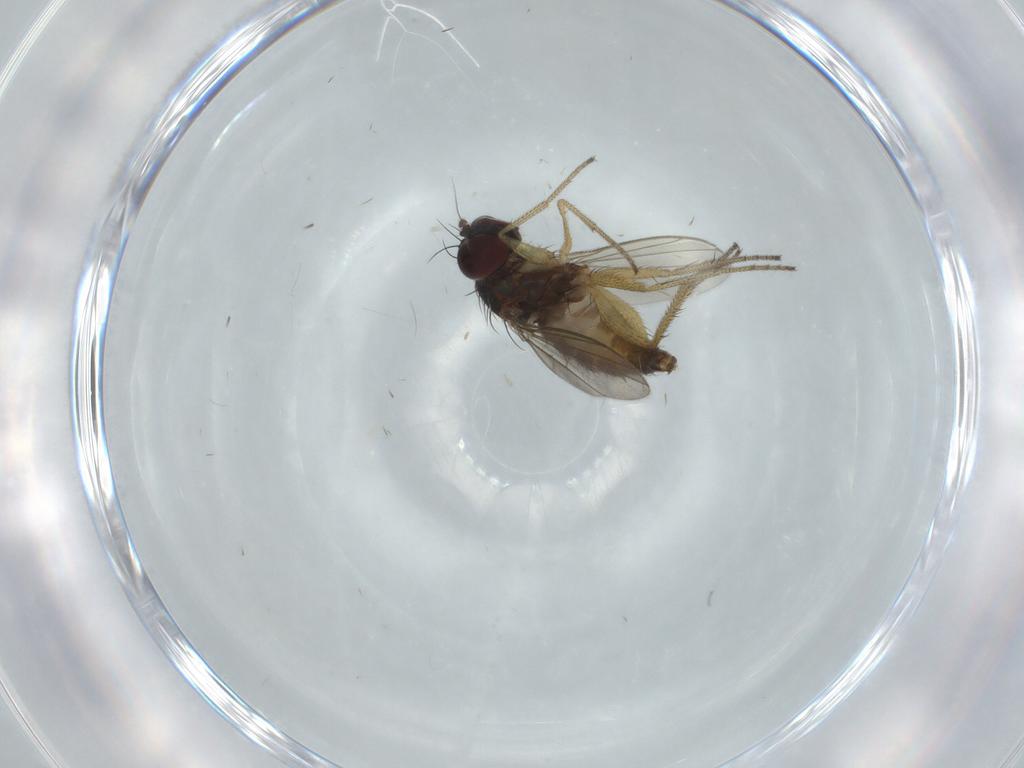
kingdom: Animalia
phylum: Arthropoda
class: Insecta
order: Diptera
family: Dolichopodidae
